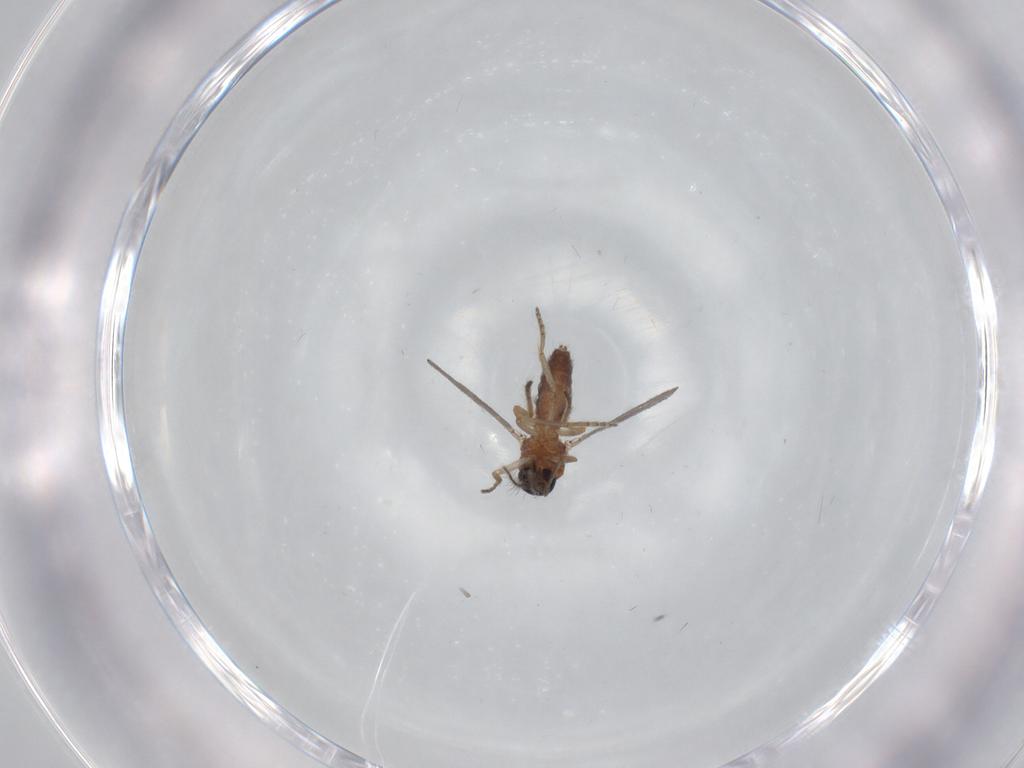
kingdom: Animalia
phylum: Arthropoda
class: Insecta
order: Diptera
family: Ceratopogonidae
